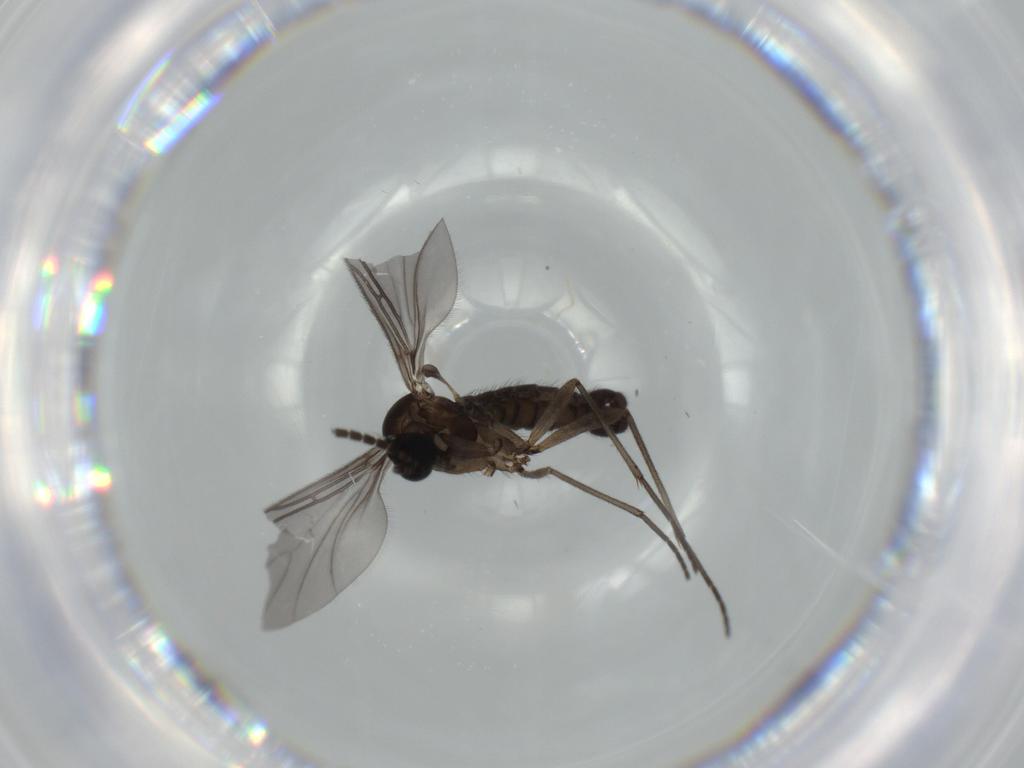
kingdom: Animalia
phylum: Arthropoda
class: Insecta
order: Diptera
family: Sciaridae
